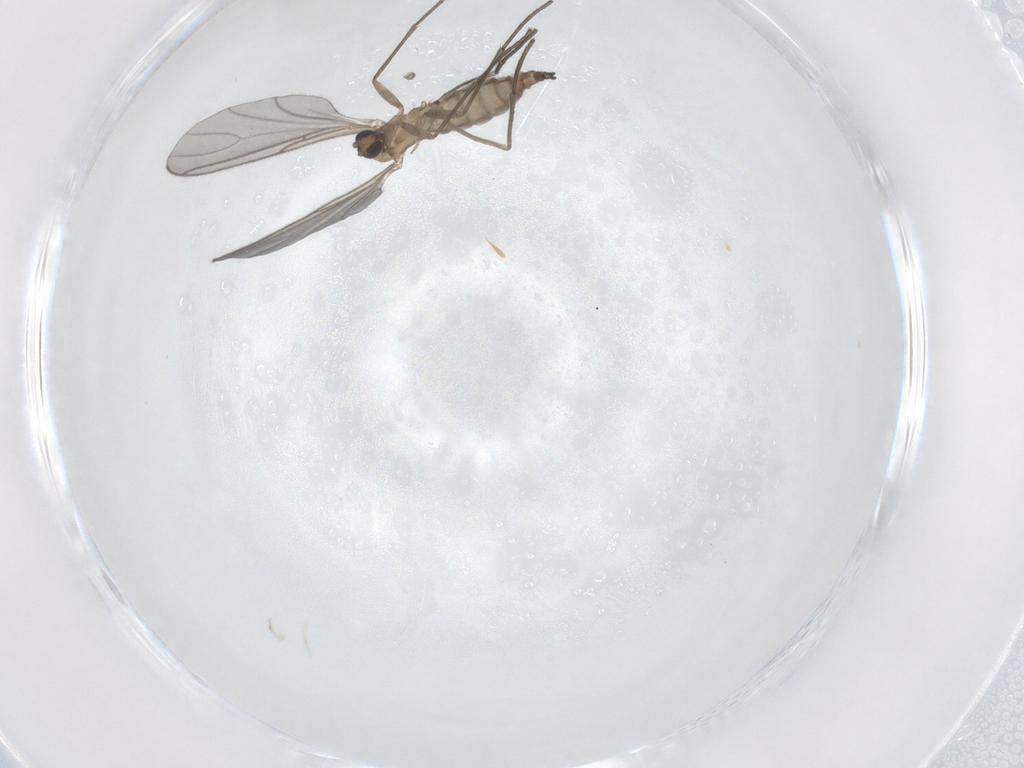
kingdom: Animalia
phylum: Arthropoda
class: Insecta
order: Diptera
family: Sciaridae
